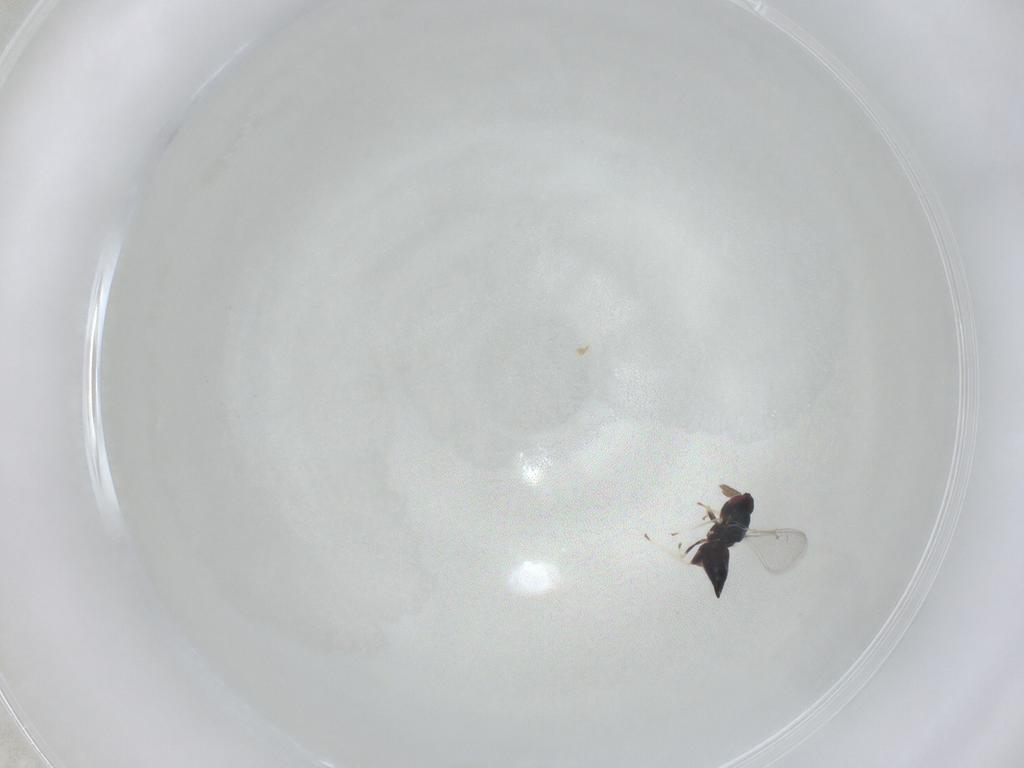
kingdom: Animalia
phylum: Arthropoda
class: Insecta
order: Hymenoptera
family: Eulophidae
